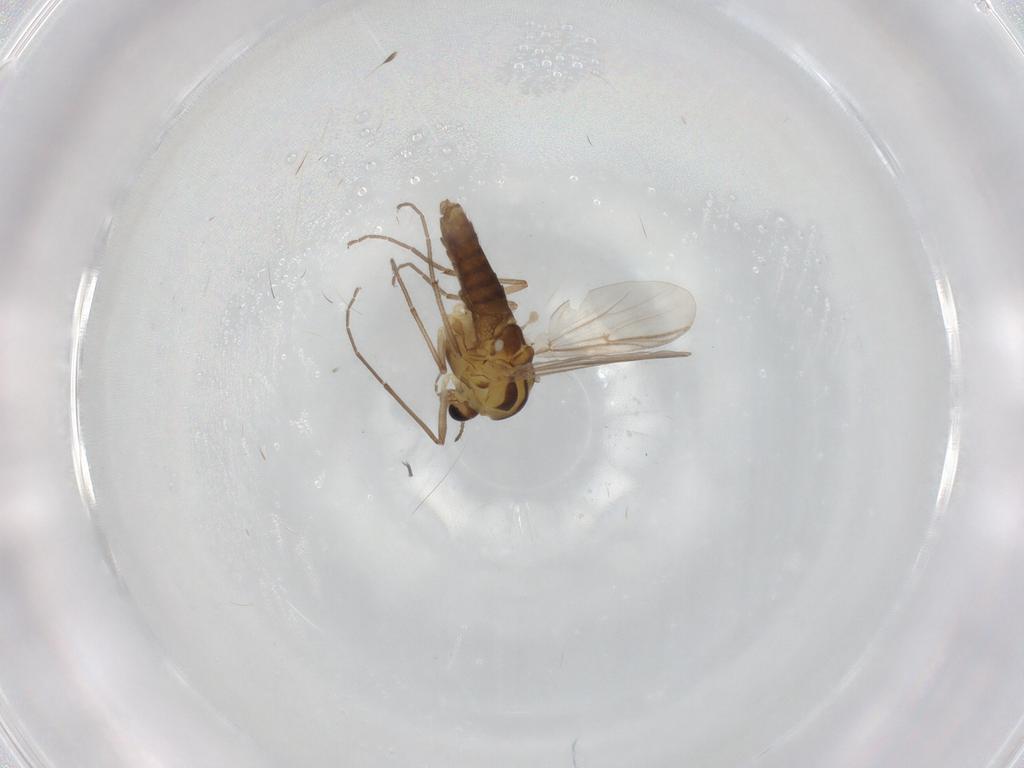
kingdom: Animalia
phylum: Arthropoda
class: Insecta
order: Diptera
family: Chironomidae
